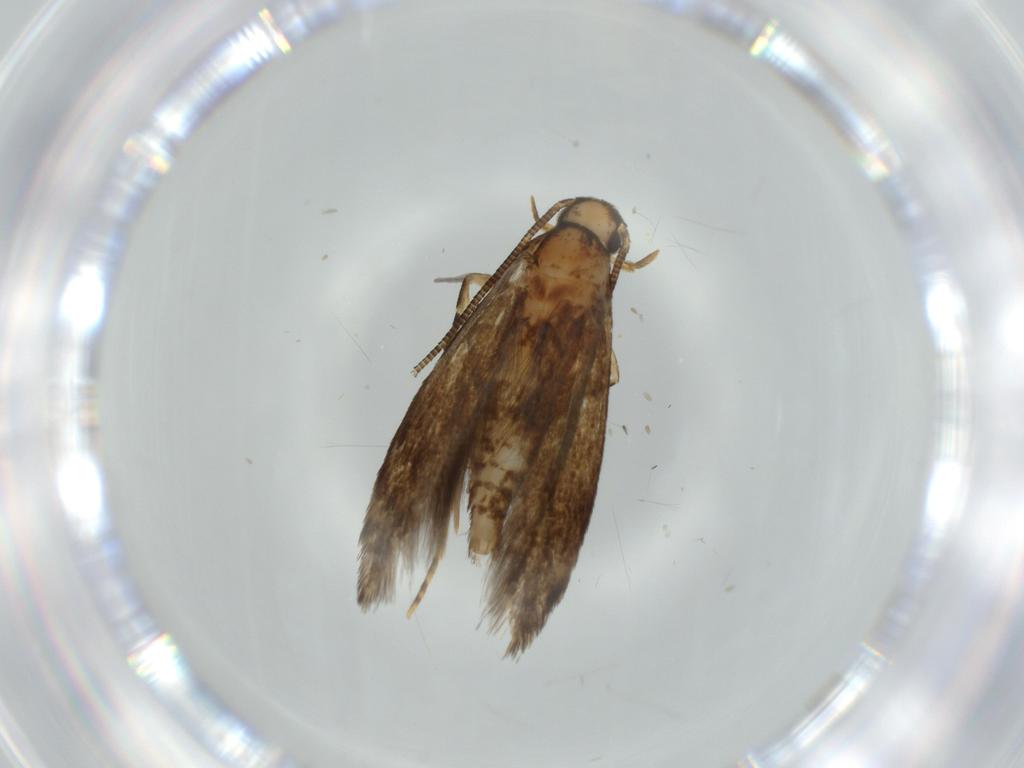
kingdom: Animalia
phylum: Arthropoda
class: Insecta
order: Lepidoptera
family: Tineidae
